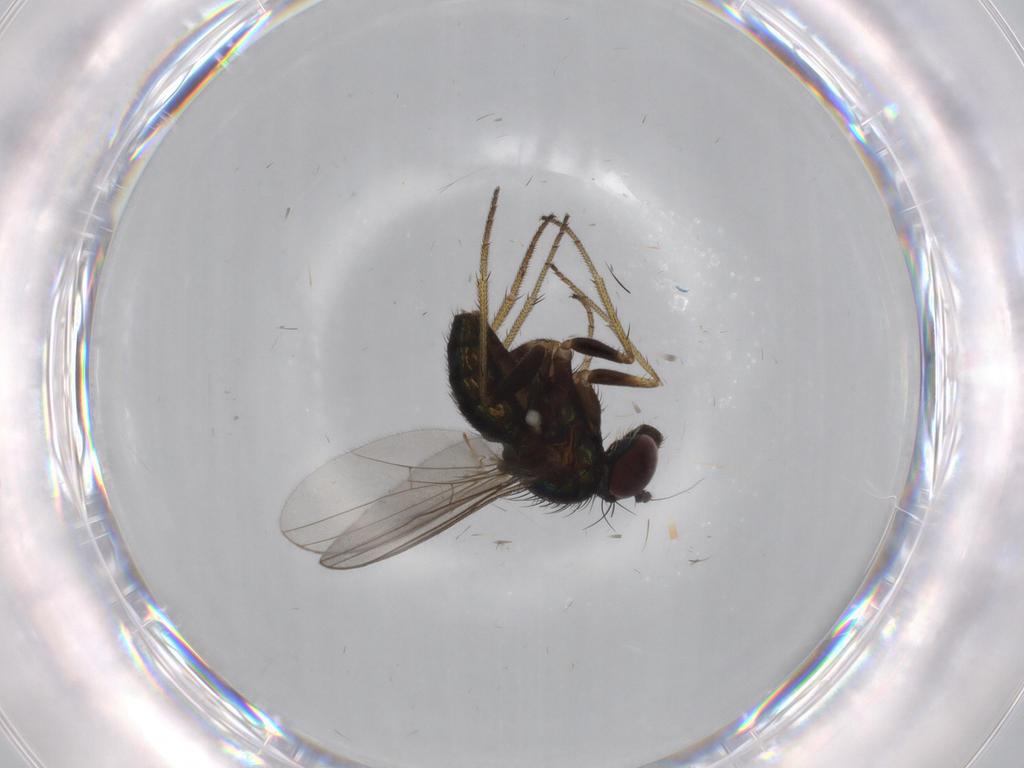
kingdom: Animalia
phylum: Arthropoda
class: Insecta
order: Diptera
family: Dolichopodidae
